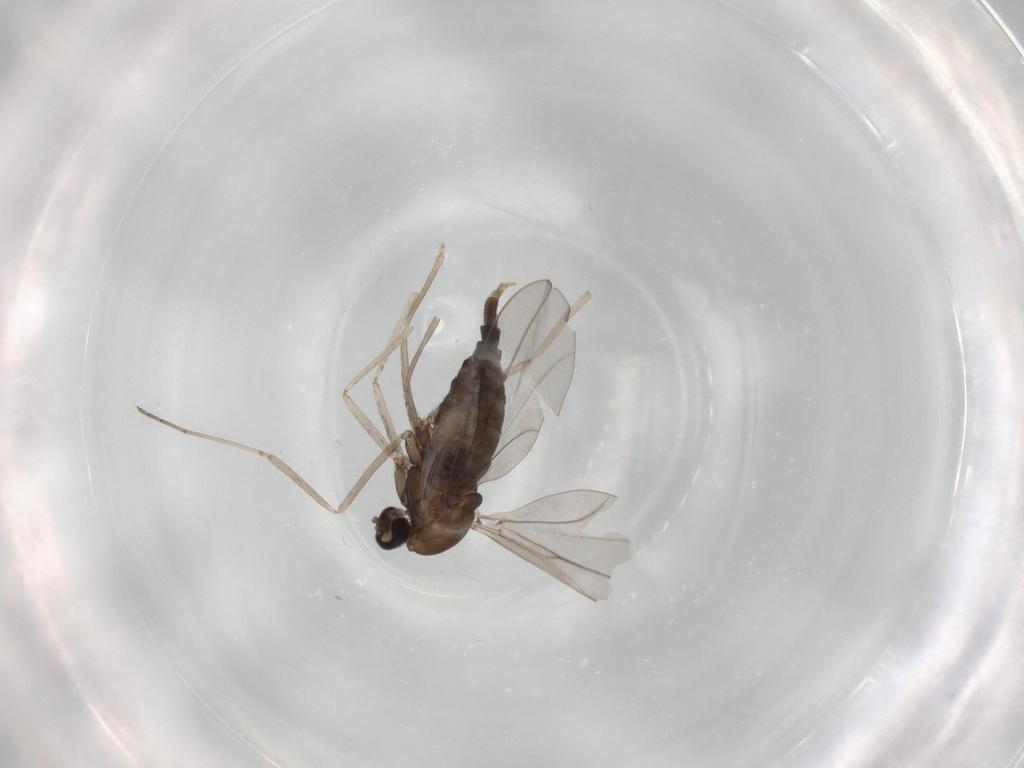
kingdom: Animalia
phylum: Arthropoda
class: Insecta
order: Diptera
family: Cecidomyiidae
